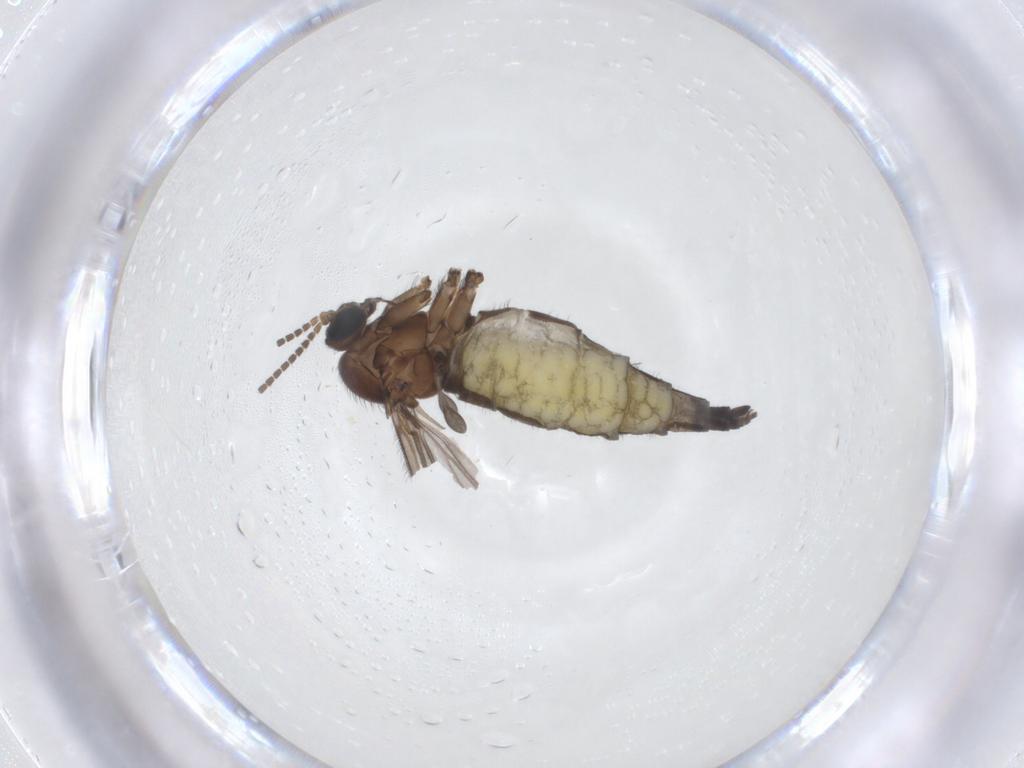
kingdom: Animalia
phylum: Arthropoda
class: Insecta
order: Diptera
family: Sciaridae
